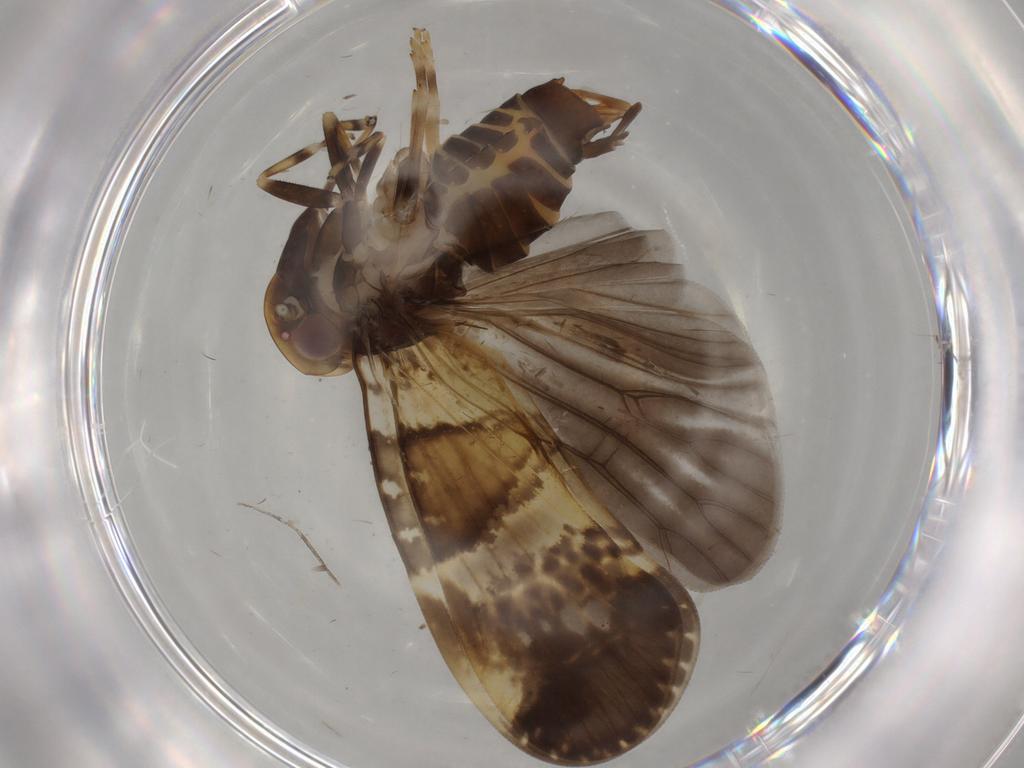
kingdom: Animalia
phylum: Arthropoda
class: Insecta
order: Hemiptera
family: Cixiidae
